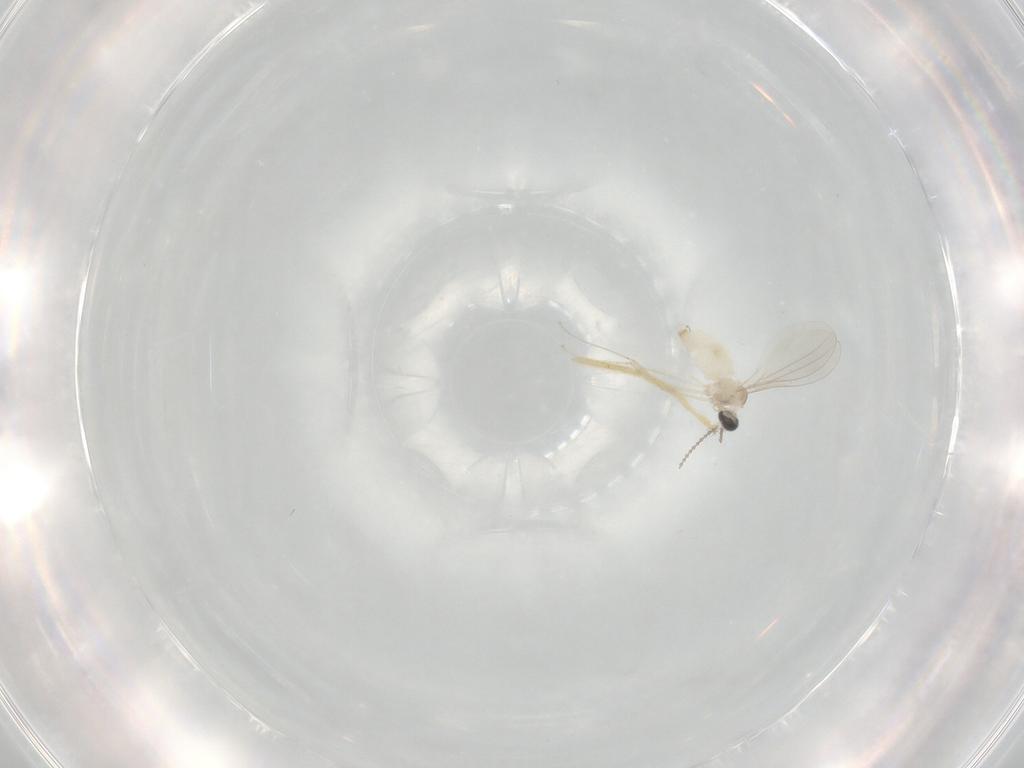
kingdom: Animalia
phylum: Arthropoda
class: Insecta
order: Diptera
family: Chironomidae
